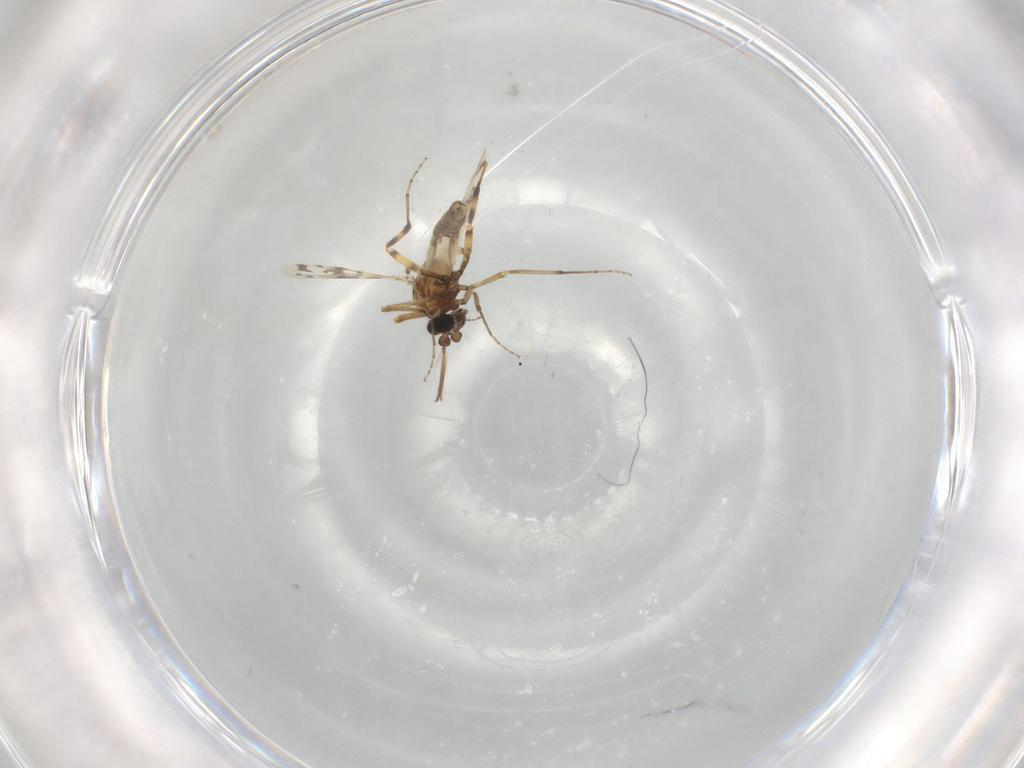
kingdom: Animalia
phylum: Arthropoda
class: Insecta
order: Diptera
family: Ceratopogonidae
